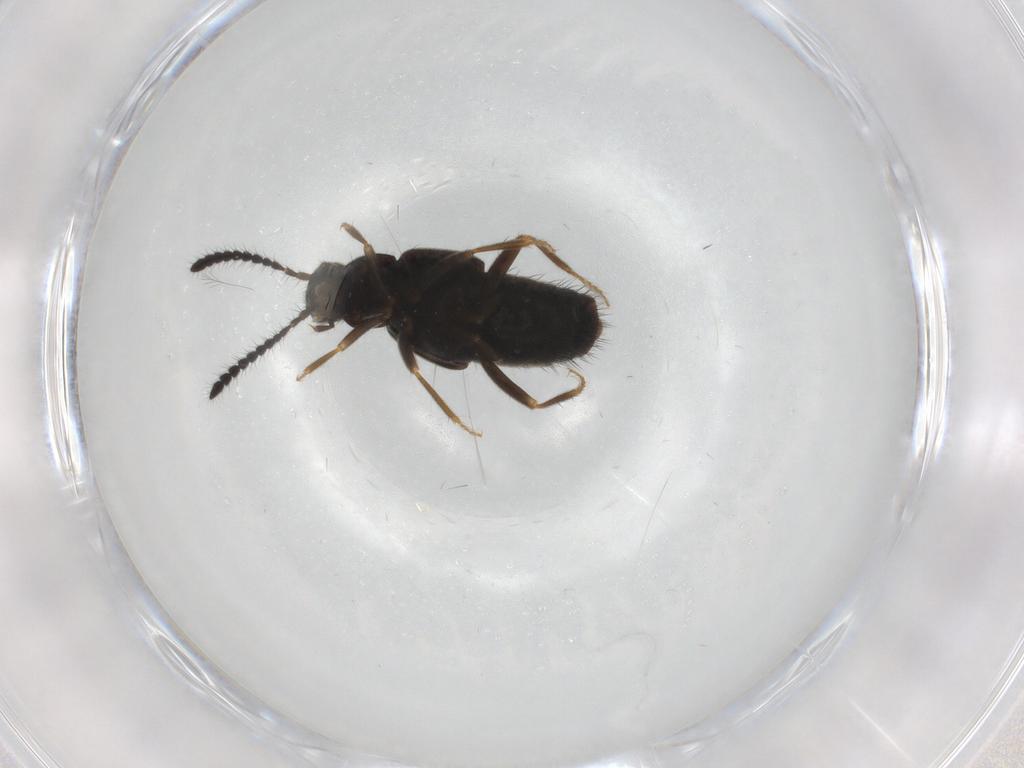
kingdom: Animalia
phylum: Arthropoda
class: Insecta
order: Coleoptera
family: Staphylinidae
